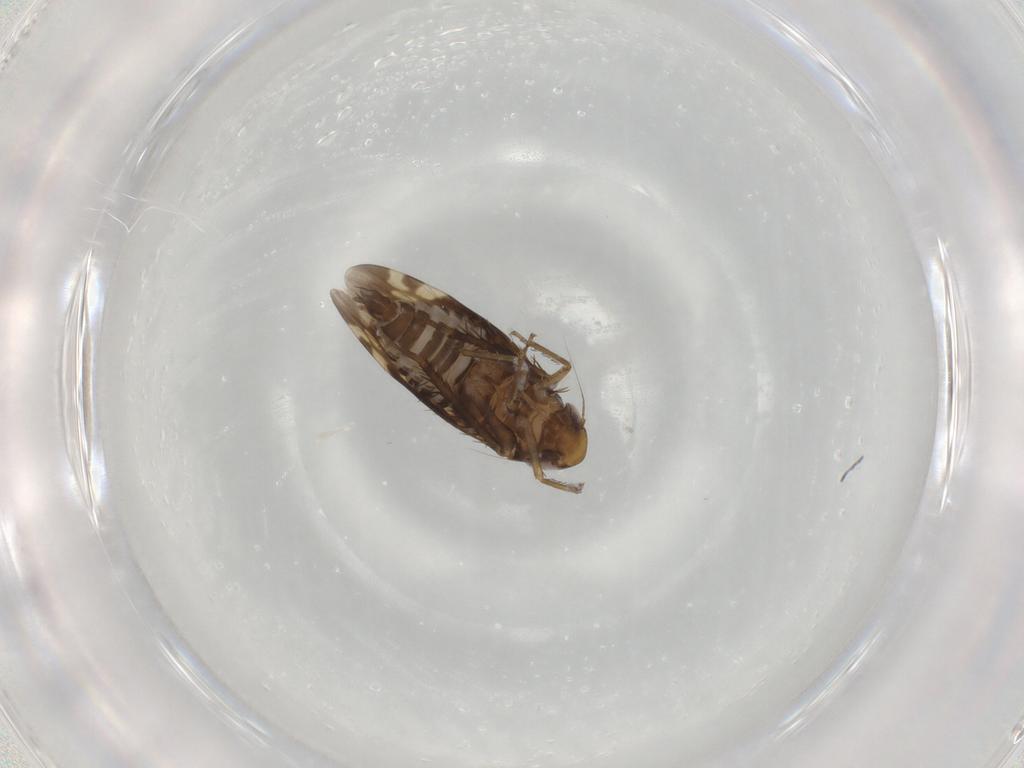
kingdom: Animalia
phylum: Arthropoda
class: Insecta
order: Hemiptera
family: Cicadellidae
